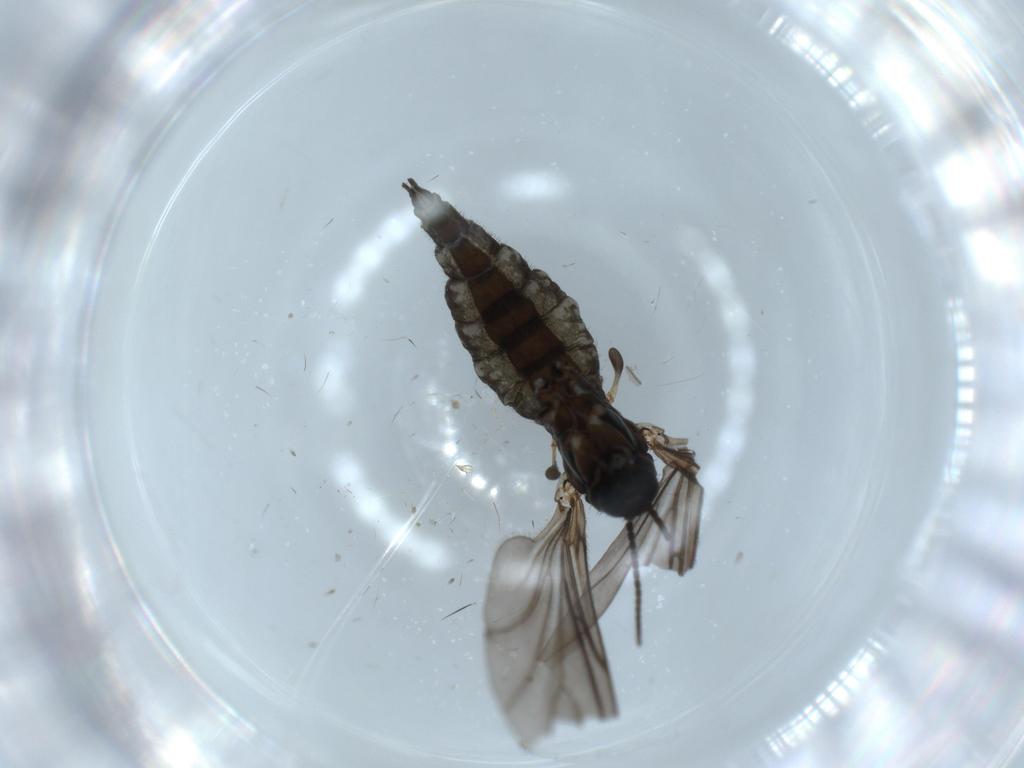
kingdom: Animalia
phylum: Arthropoda
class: Insecta
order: Diptera
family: Sciaridae
